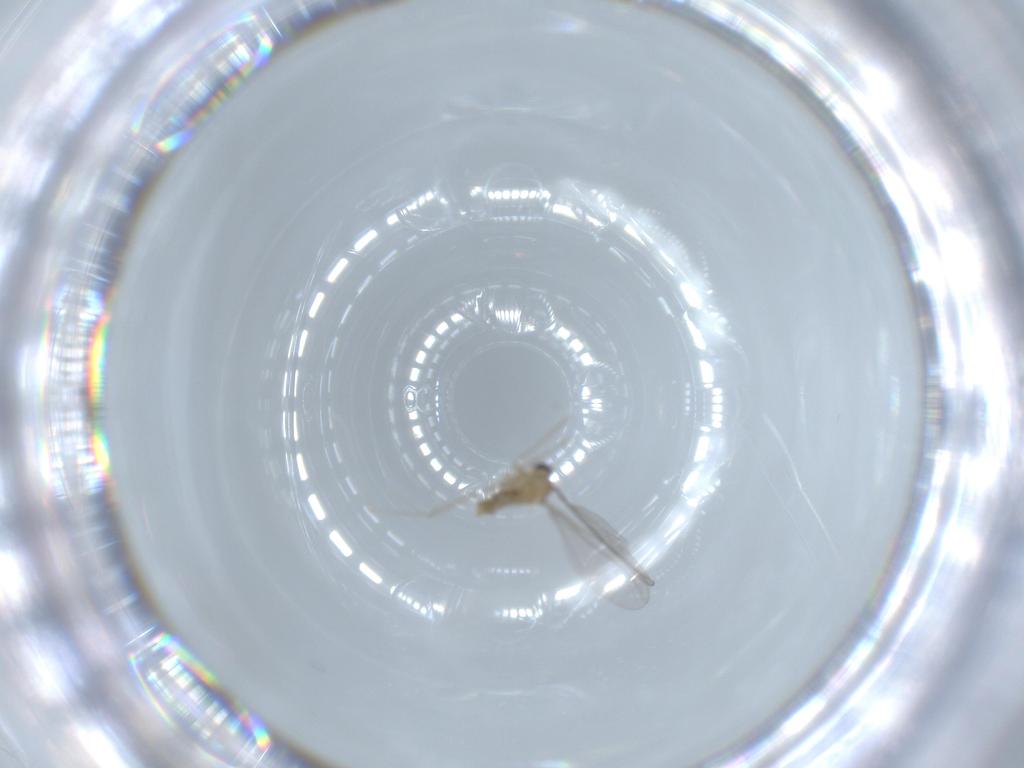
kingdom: Animalia
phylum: Arthropoda
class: Insecta
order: Diptera
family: Cecidomyiidae
